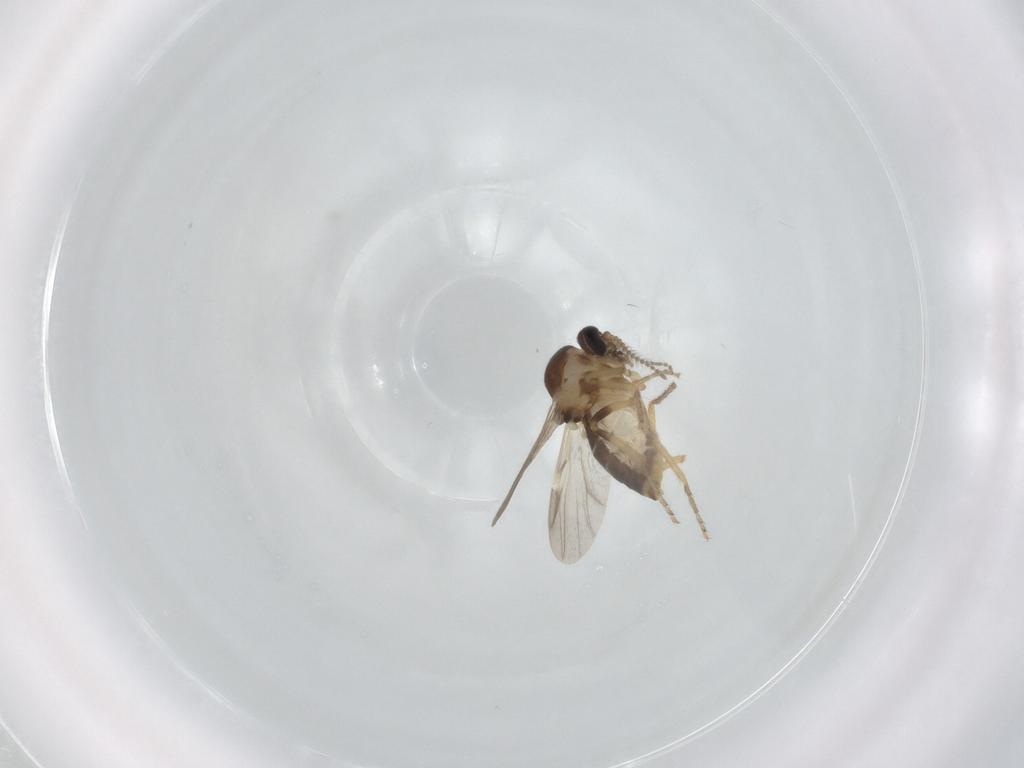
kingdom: Animalia
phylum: Arthropoda
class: Insecta
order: Diptera
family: Ceratopogonidae
